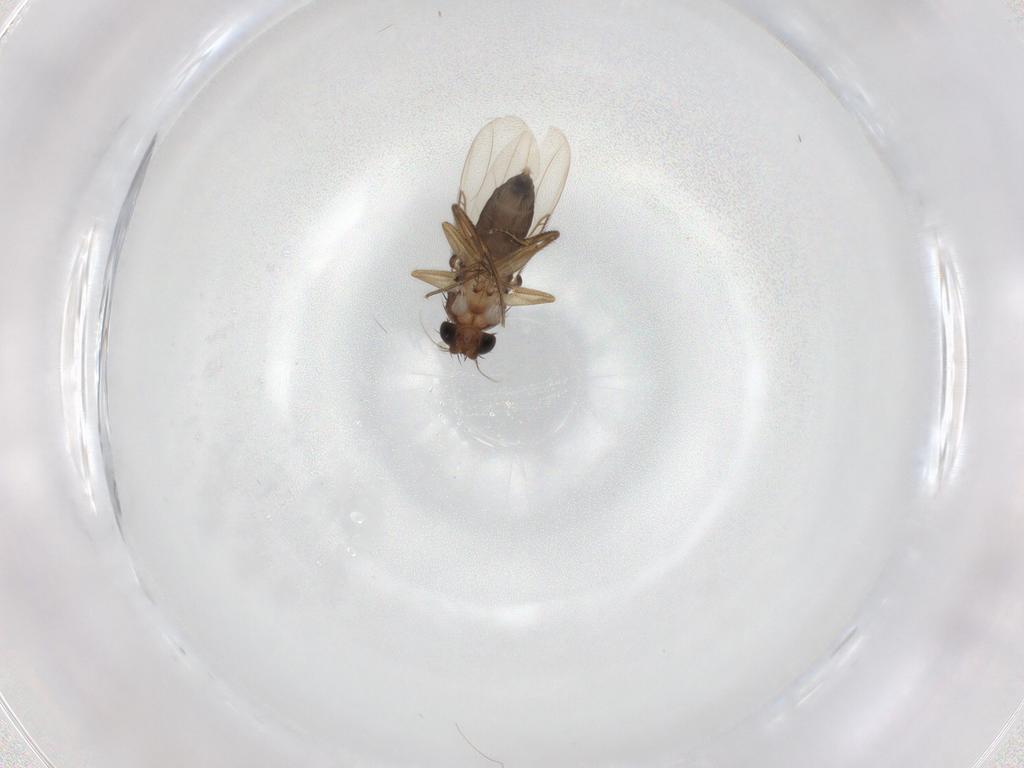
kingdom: Animalia
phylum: Arthropoda
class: Insecta
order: Diptera
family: Phoridae
